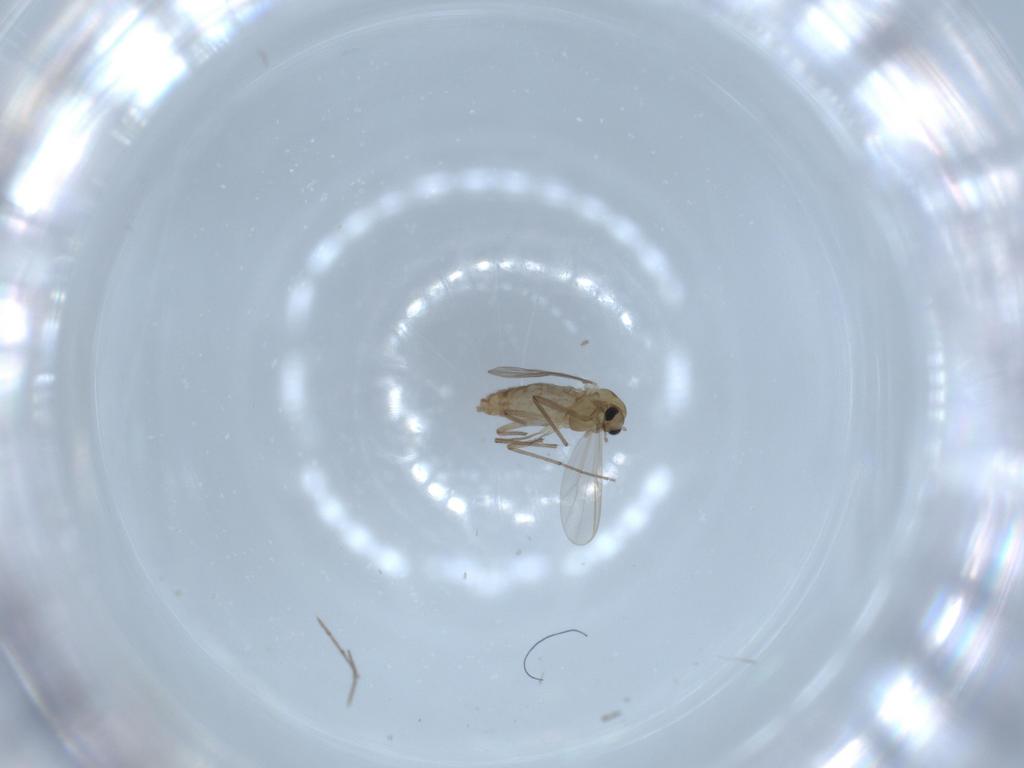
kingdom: Animalia
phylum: Arthropoda
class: Insecta
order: Diptera
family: Chironomidae
